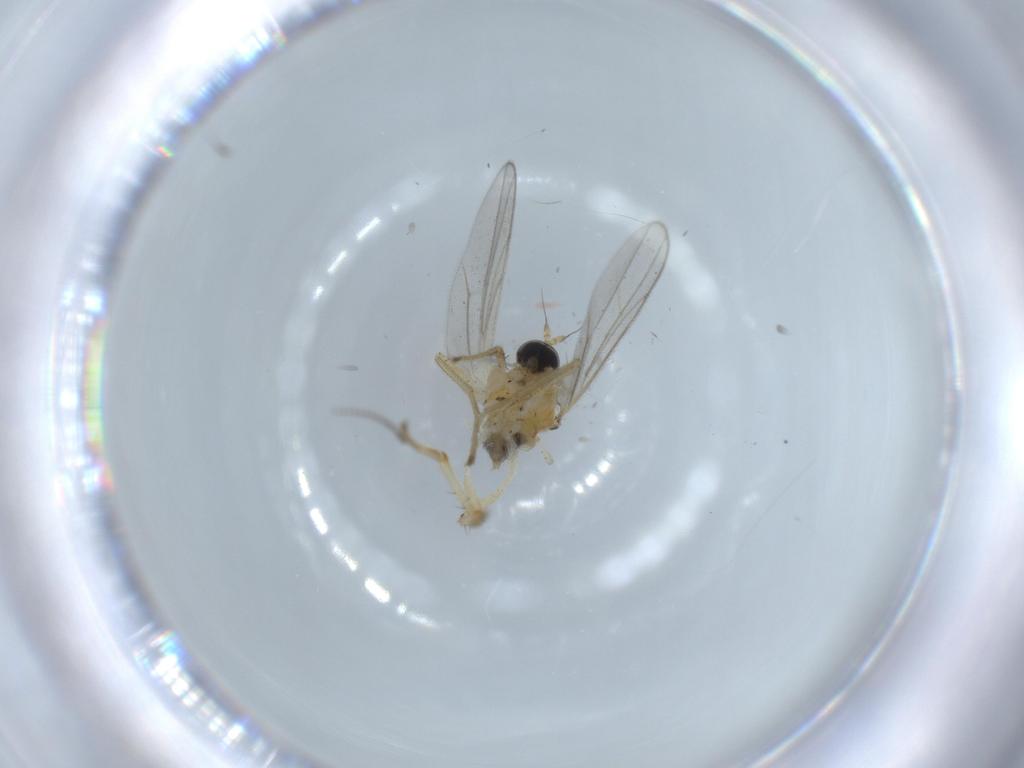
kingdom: Animalia
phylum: Arthropoda
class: Insecta
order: Diptera
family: Hybotidae
